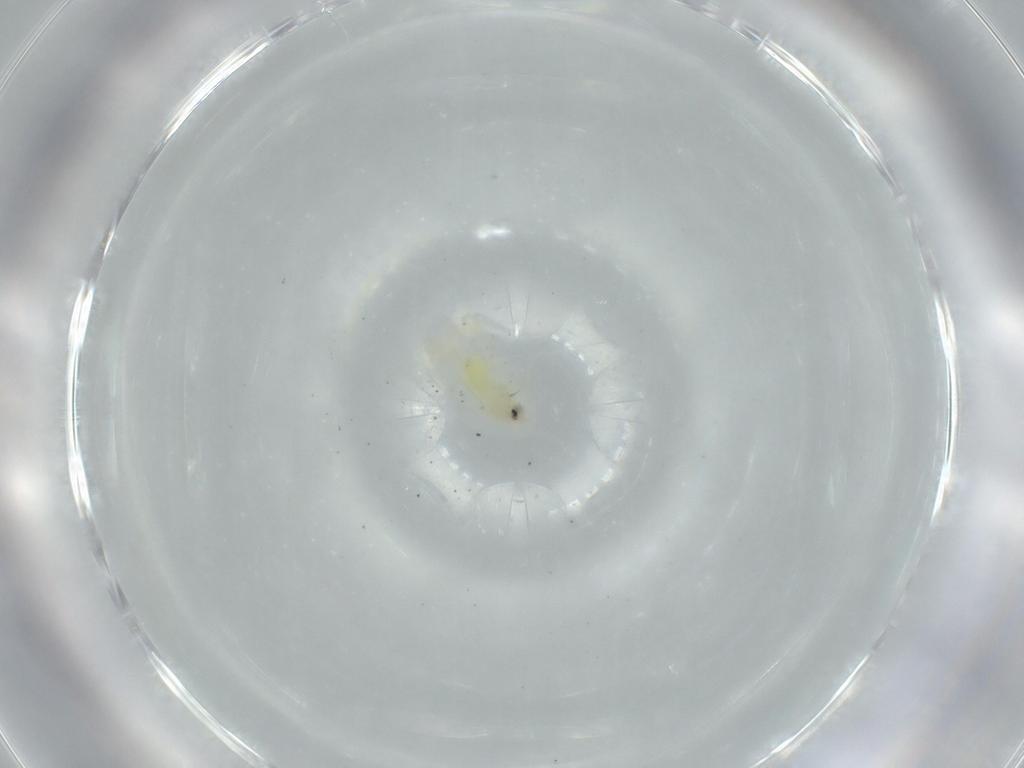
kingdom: Animalia
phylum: Arthropoda
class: Insecta
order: Hemiptera
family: Aleyrodidae
